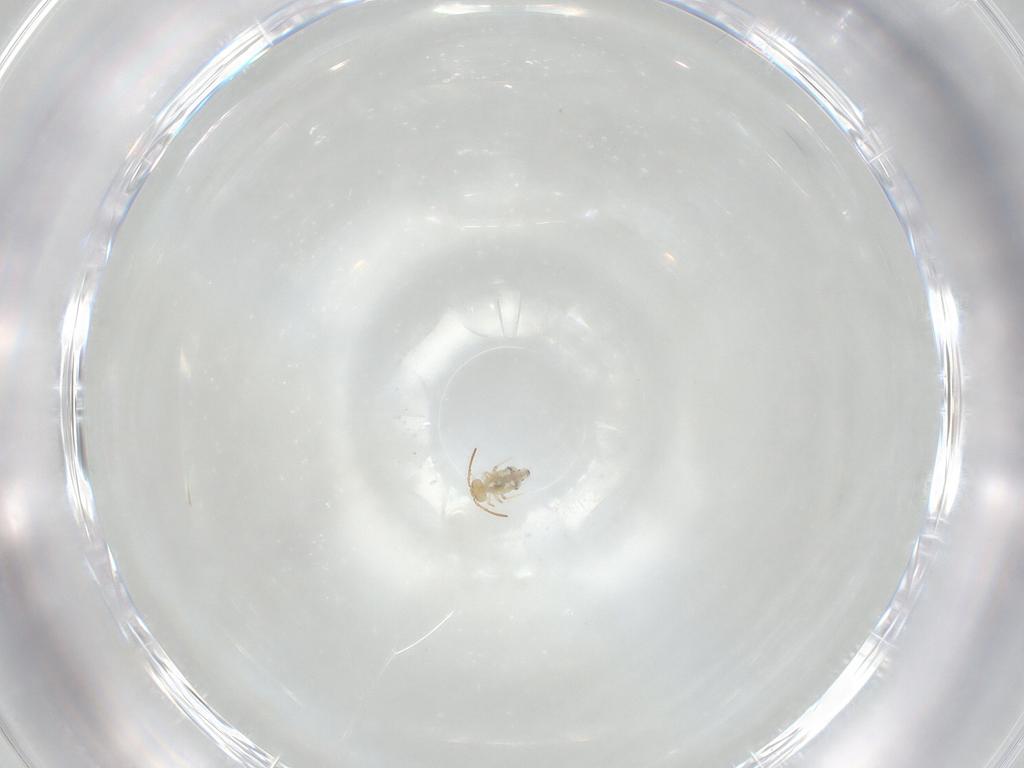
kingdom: Animalia
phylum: Arthropoda
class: Collembola
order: Symphypleona
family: Bourletiellidae
